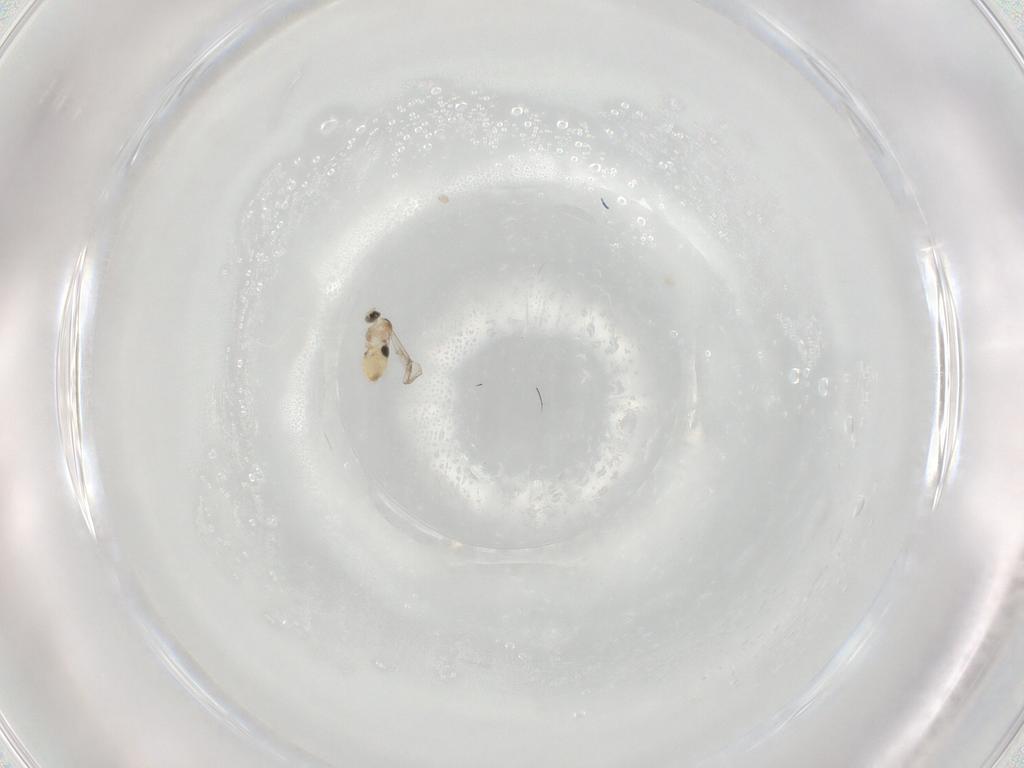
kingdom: Animalia
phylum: Arthropoda
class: Insecta
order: Diptera
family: Cecidomyiidae
